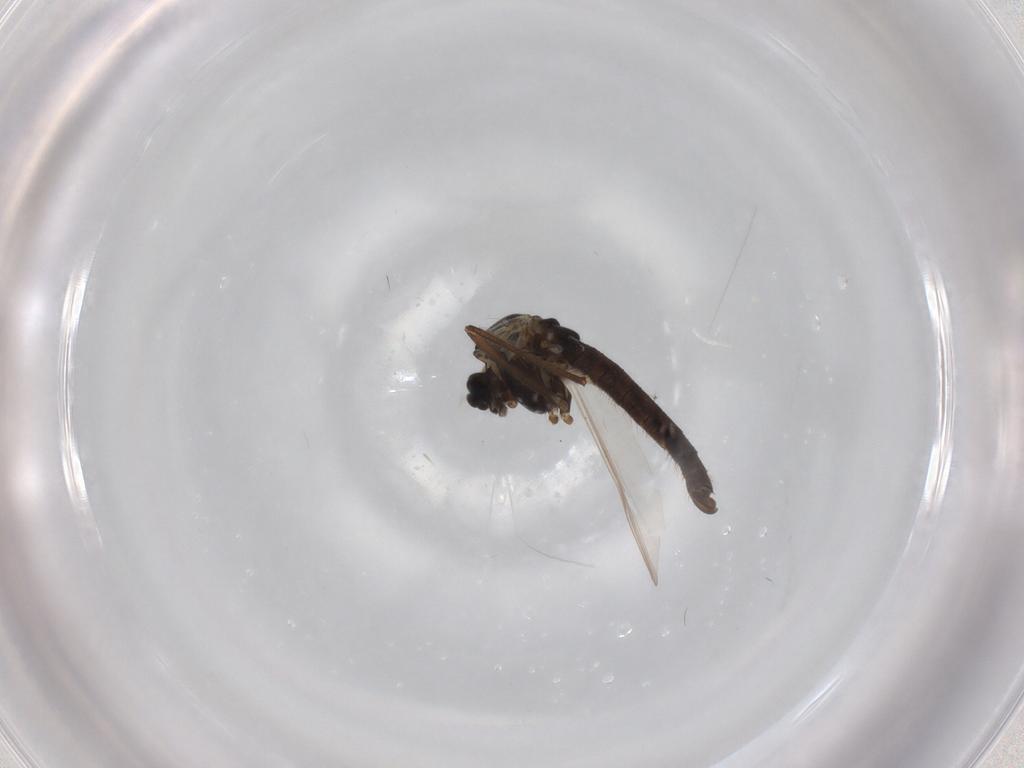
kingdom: Animalia
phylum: Arthropoda
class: Insecta
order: Diptera
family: Chironomidae
